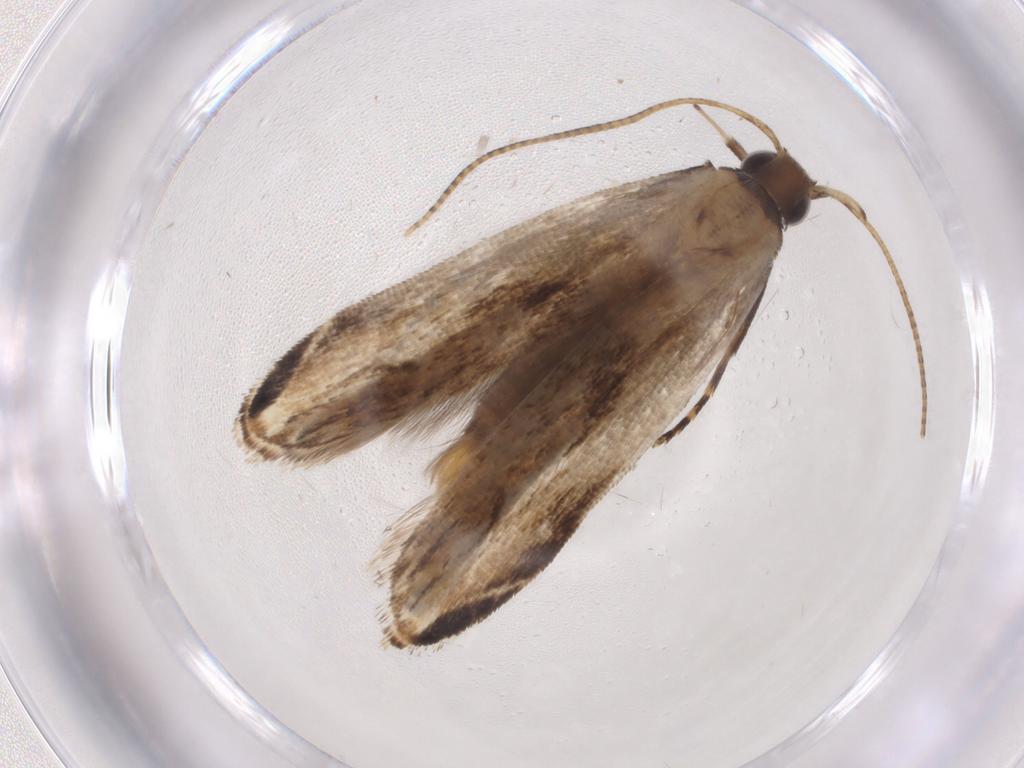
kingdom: Animalia
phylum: Arthropoda
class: Insecta
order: Lepidoptera
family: Gelechiidae
